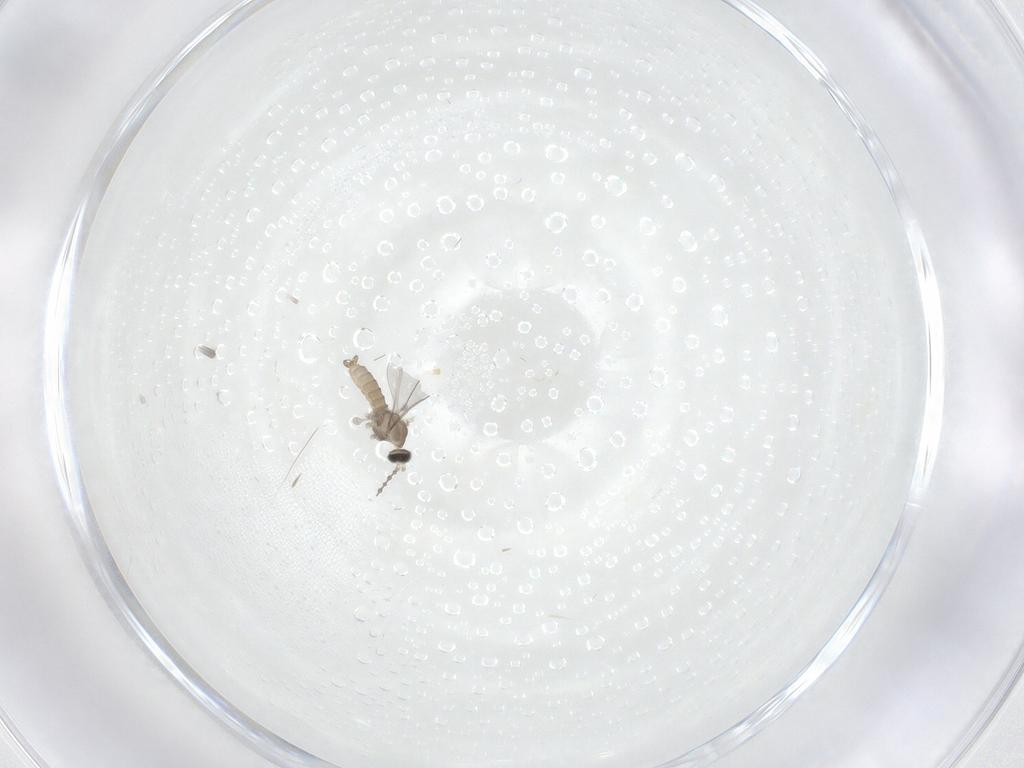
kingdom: Animalia
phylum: Arthropoda
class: Insecta
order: Diptera
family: Cecidomyiidae
